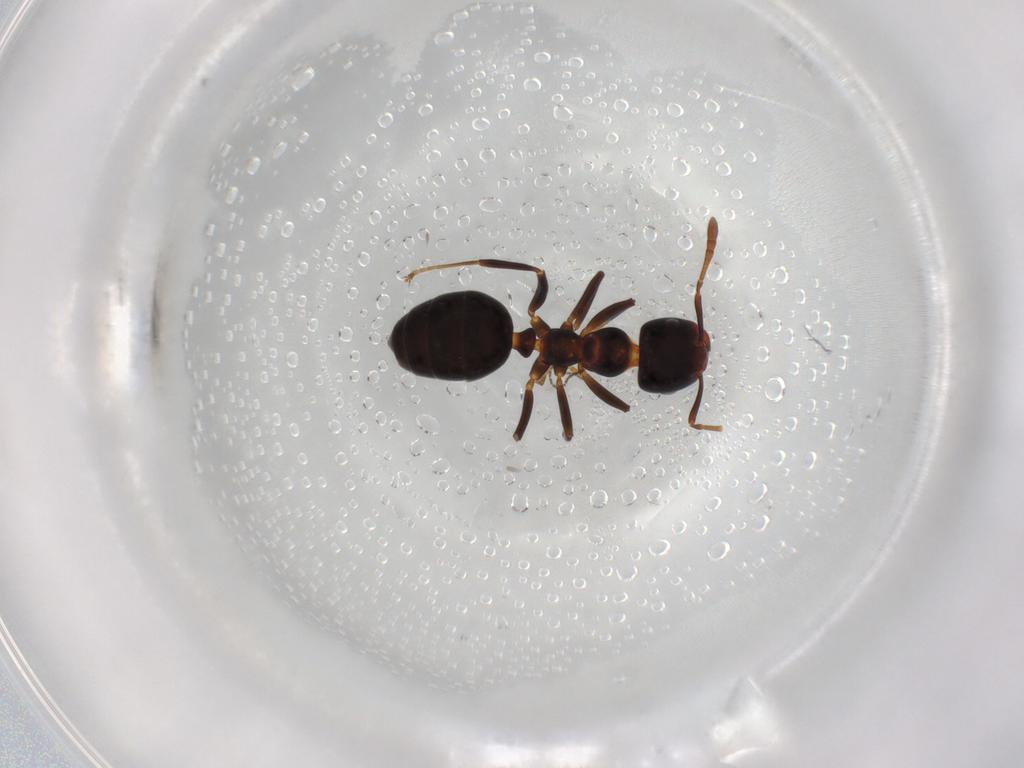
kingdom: Animalia
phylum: Arthropoda
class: Insecta
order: Hymenoptera
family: Formicidae
